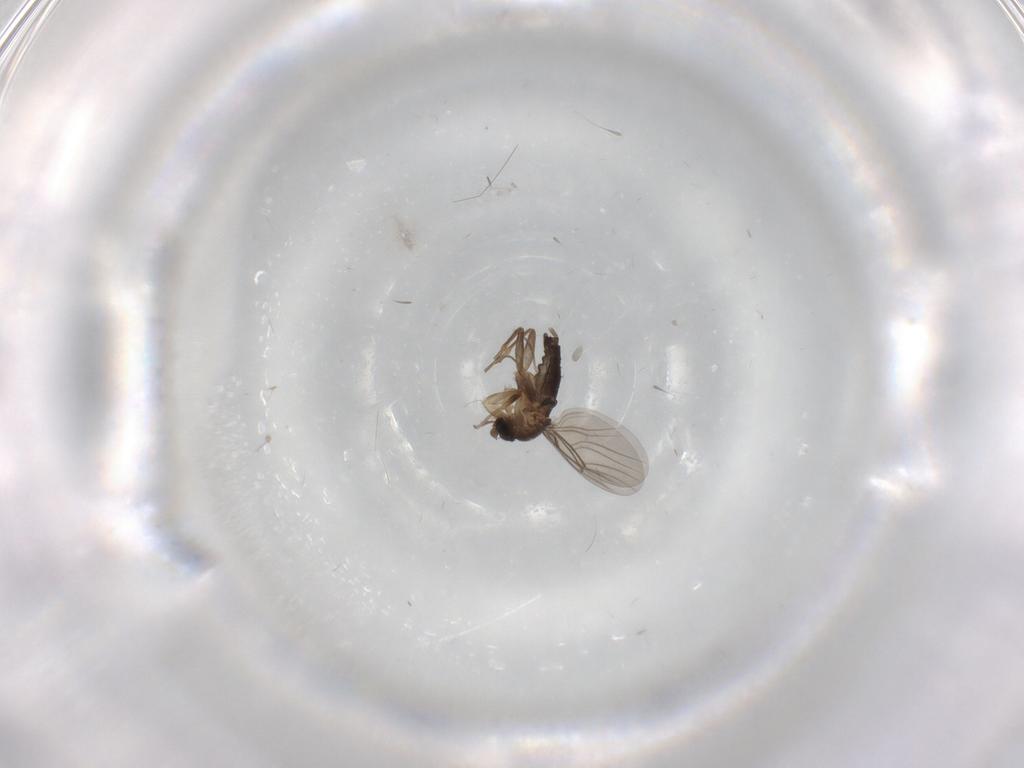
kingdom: Animalia
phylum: Arthropoda
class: Insecta
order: Diptera
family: Phoridae
